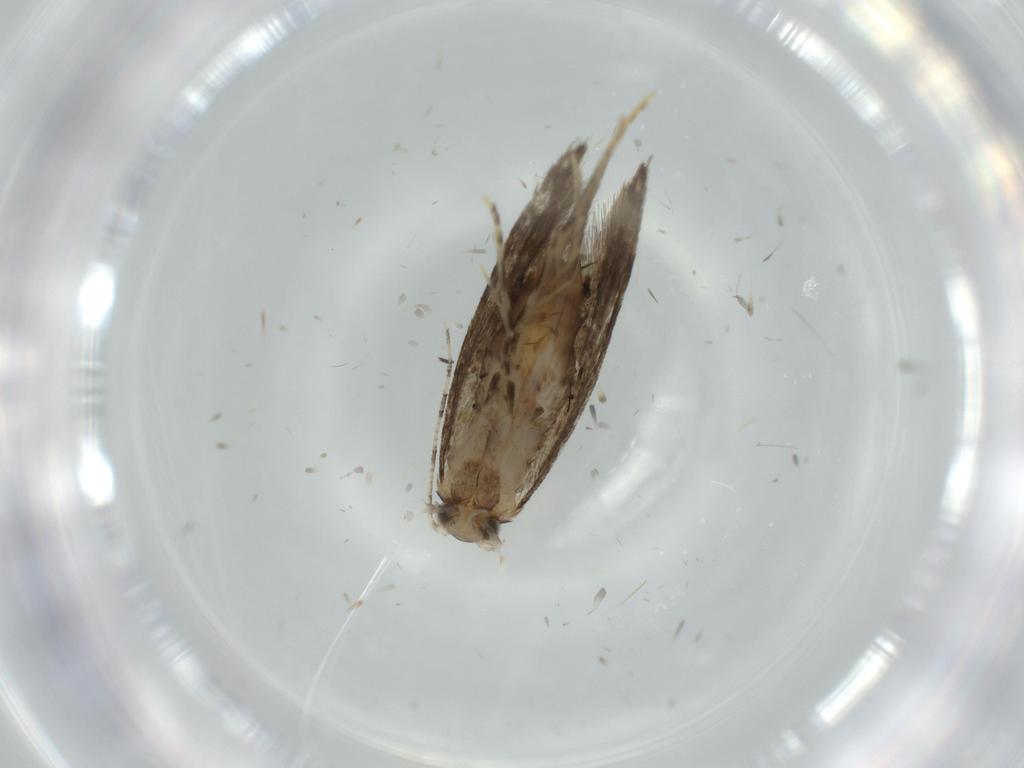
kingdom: Animalia
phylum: Arthropoda
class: Insecta
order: Lepidoptera
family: Tineidae
